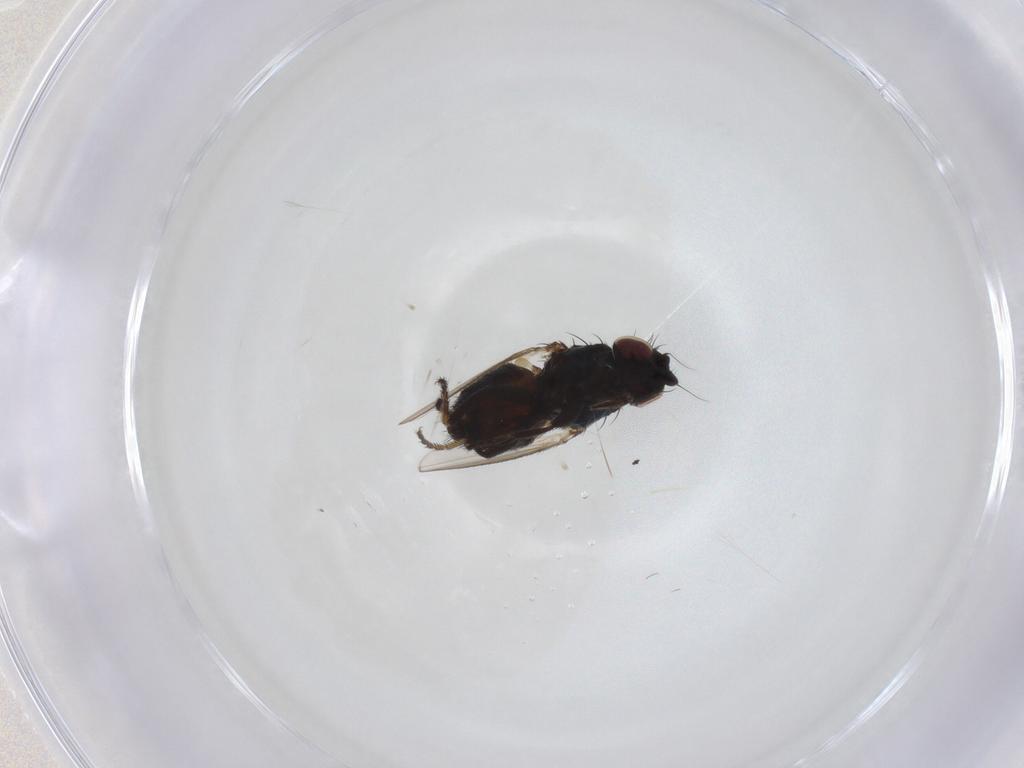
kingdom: Animalia
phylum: Arthropoda
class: Insecta
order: Diptera
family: Milichiidae
